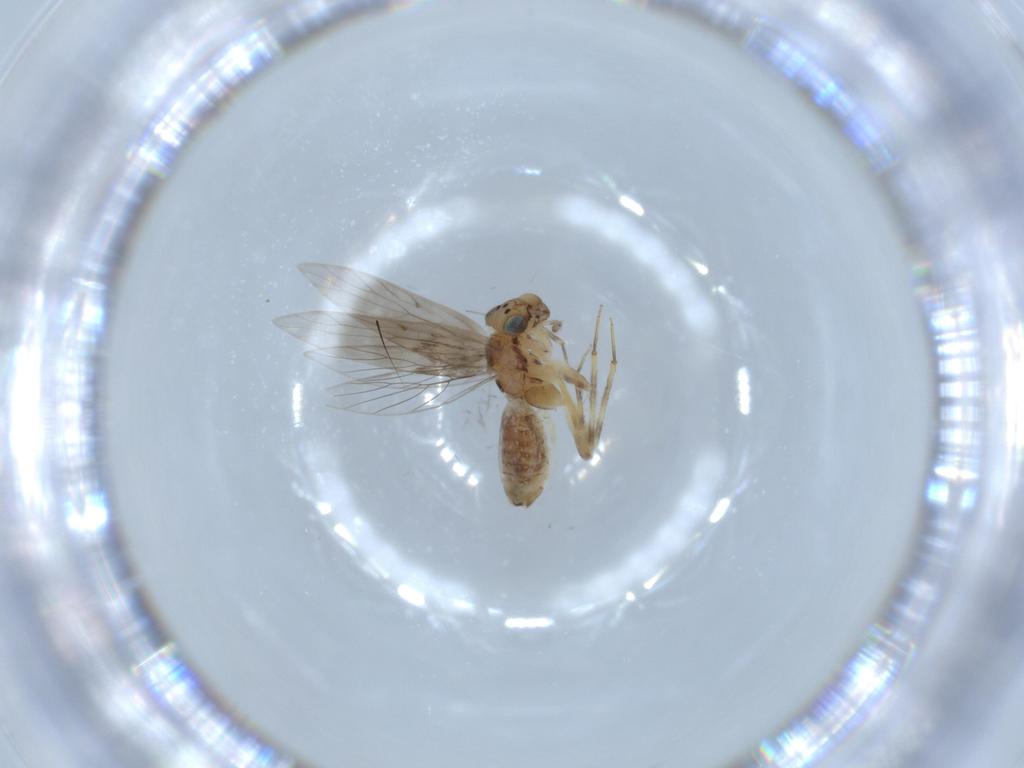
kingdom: Animalia
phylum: Arthropoda
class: Insecta
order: Psocodea
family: Lepidopsocidae
